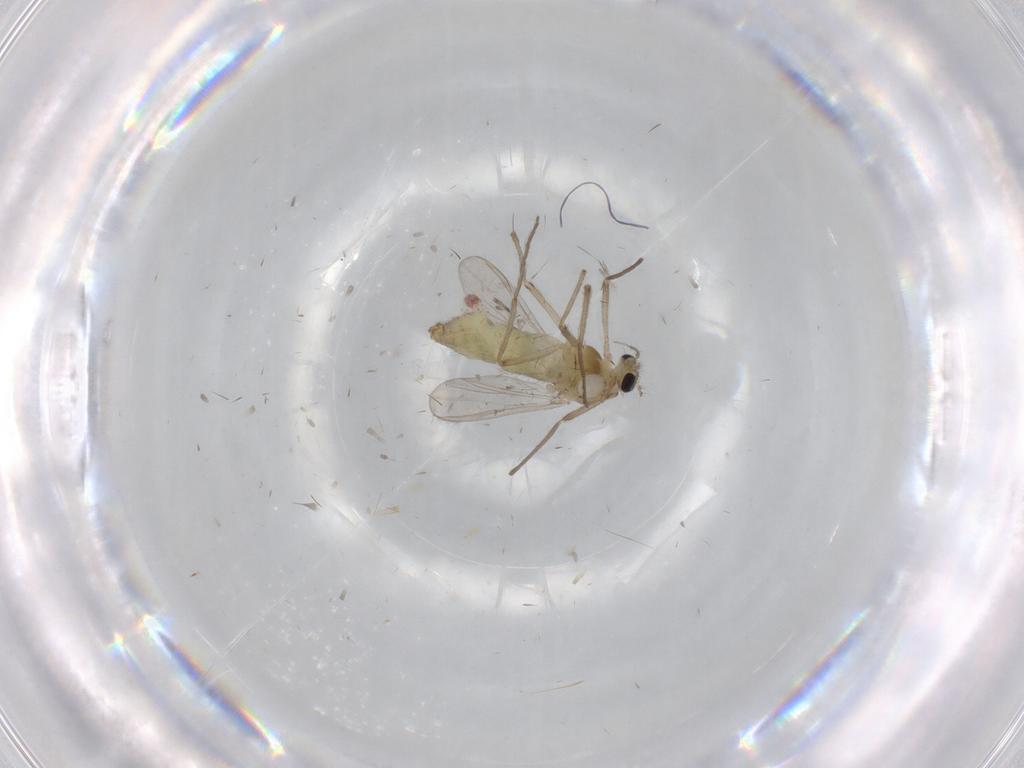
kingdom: Animalia
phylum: Arthropoda
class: Insecta
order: Diptera
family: Chironomidae
